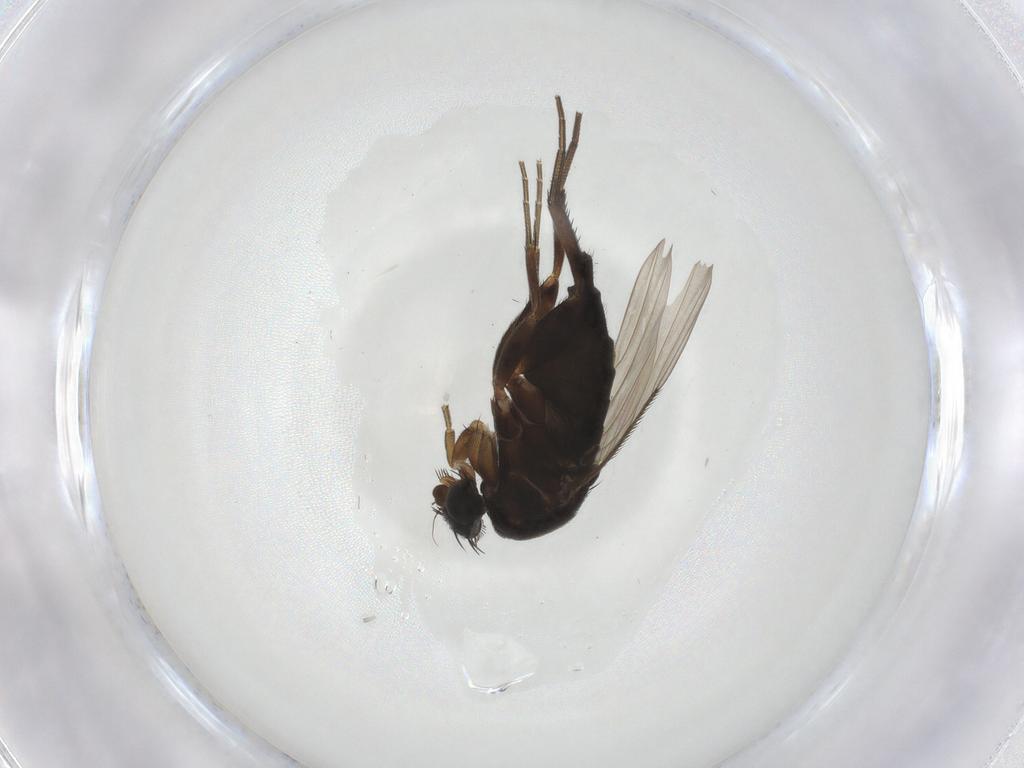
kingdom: Animalia
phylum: Arthropoda
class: Insecta
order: Diptera
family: Phoridae
